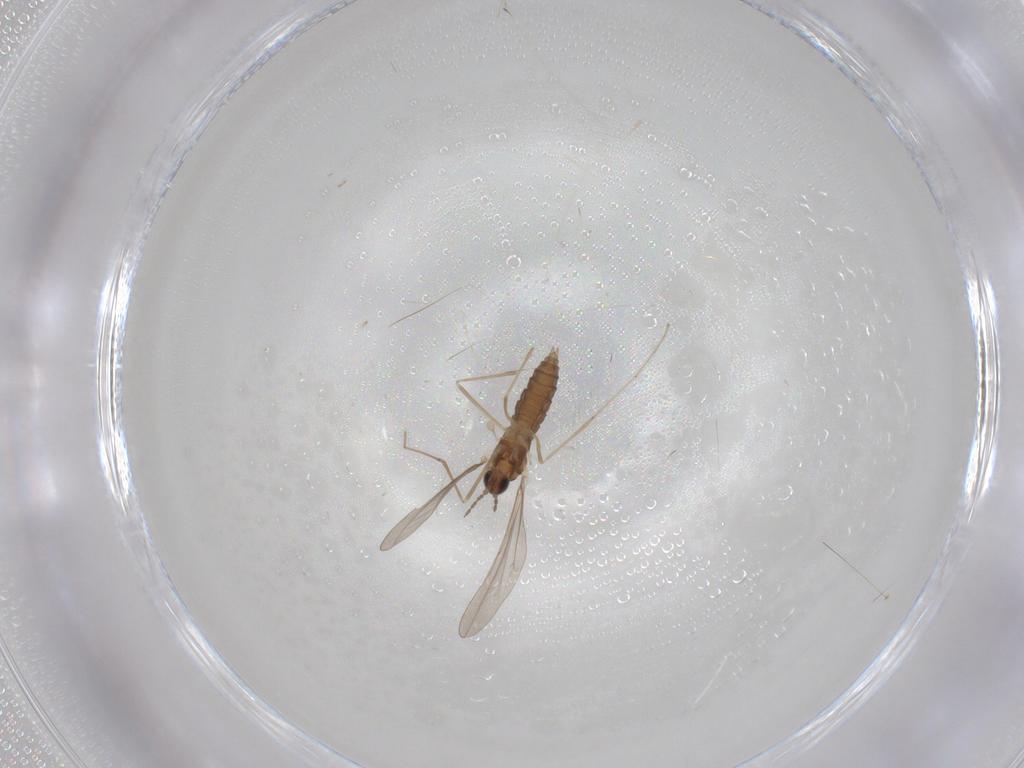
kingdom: Animalia
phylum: Arthropoda
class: Insecta
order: Diptera
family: Cecidomyiidae
